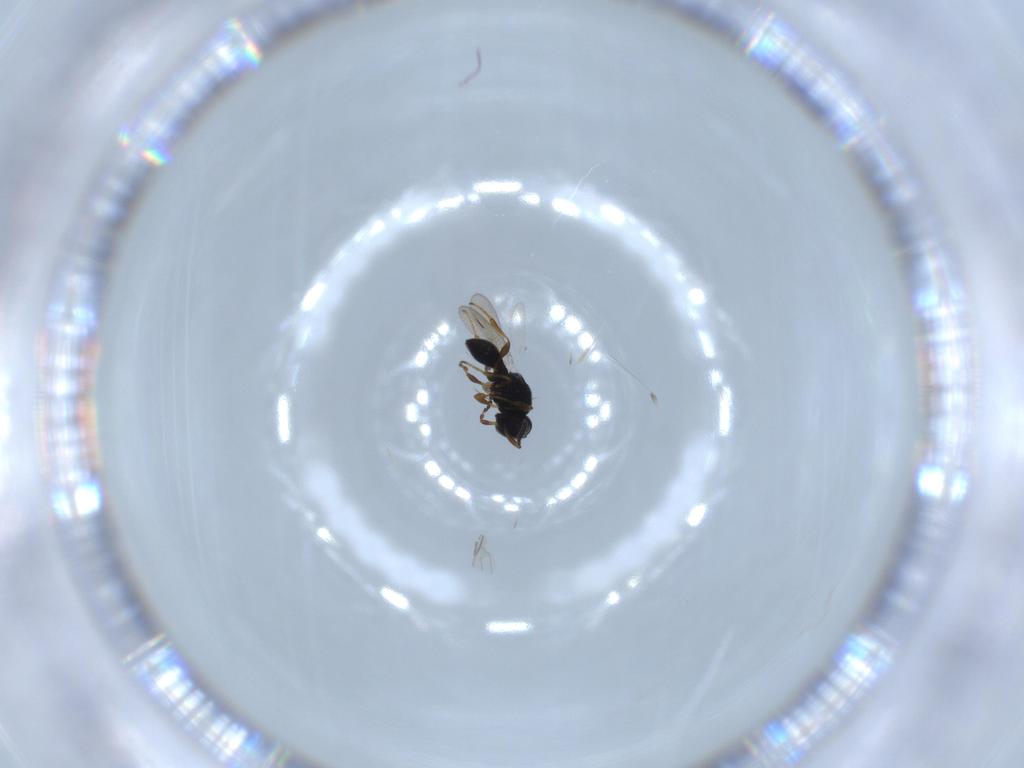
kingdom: Animalia
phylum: Arthropoda
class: Insecta
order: Hymenoptera
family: Platygastridae
